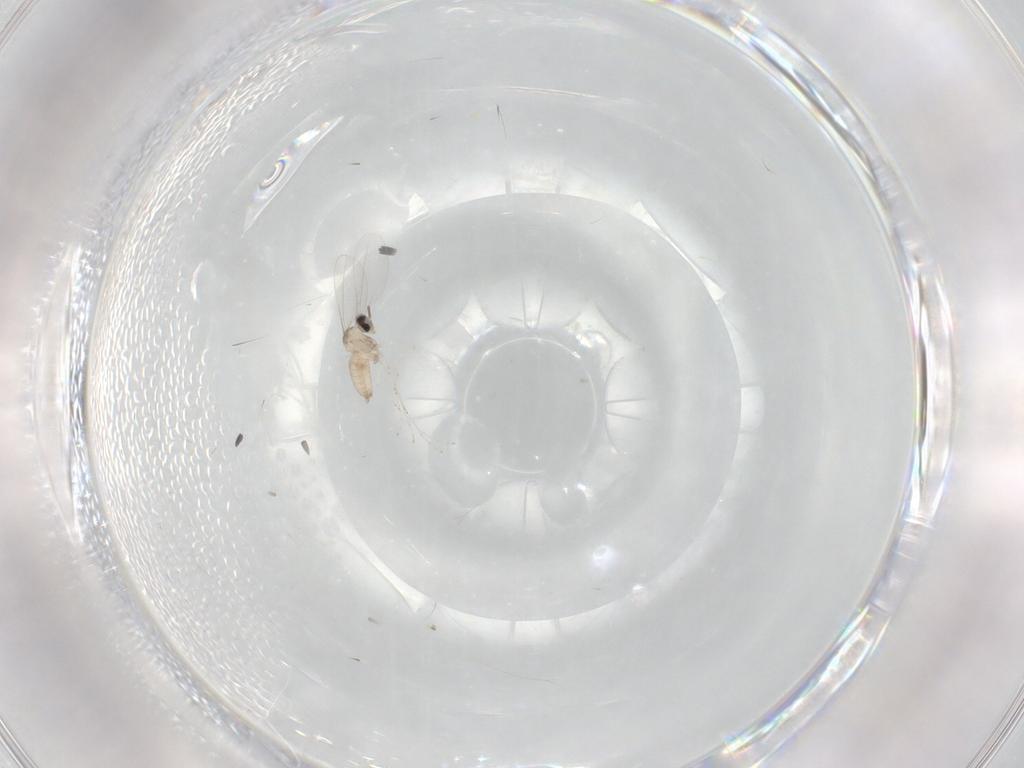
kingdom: Animalia
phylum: Arthropoda
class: Insecta
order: Diptera
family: Cecidomyiidae
